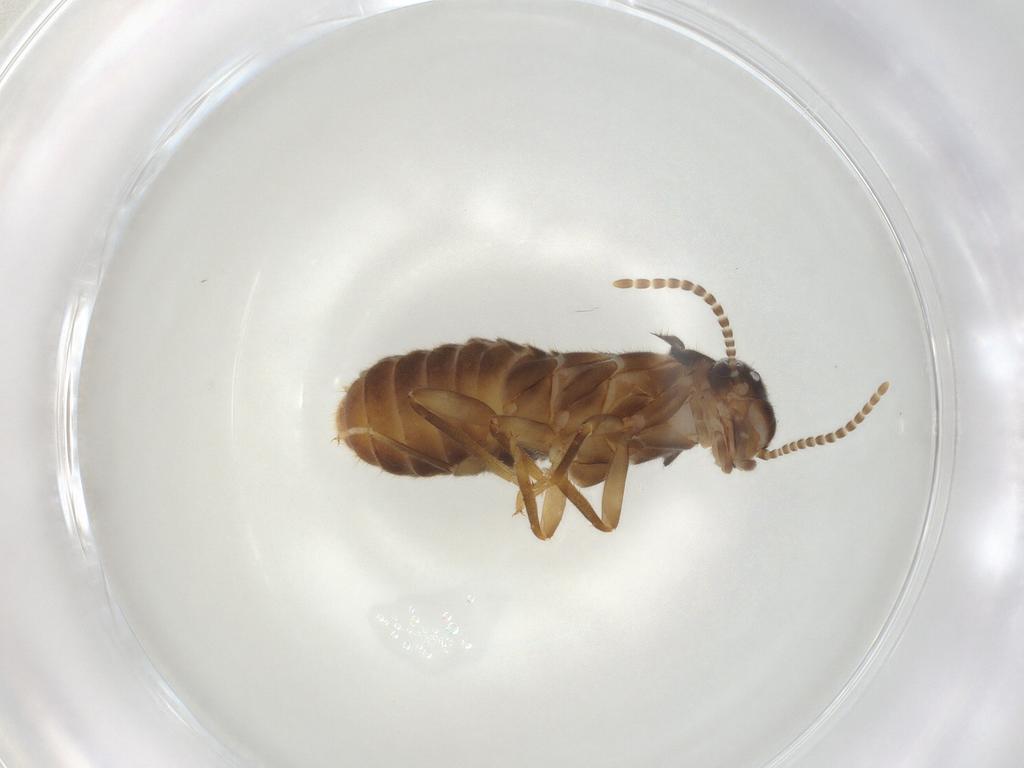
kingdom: Animalia
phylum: Arthropoda
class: Insecta
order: Blattodea
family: Termitidae
